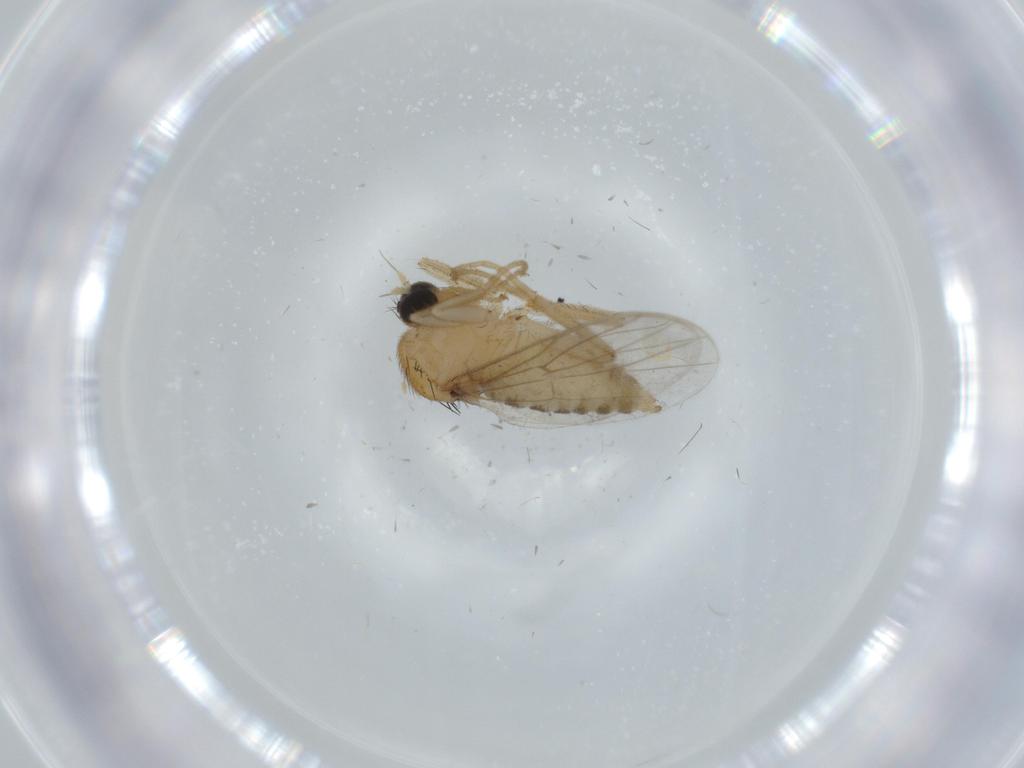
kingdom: Animalia
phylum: Arthropoda
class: Insecta
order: Diptera
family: Hybotidae
